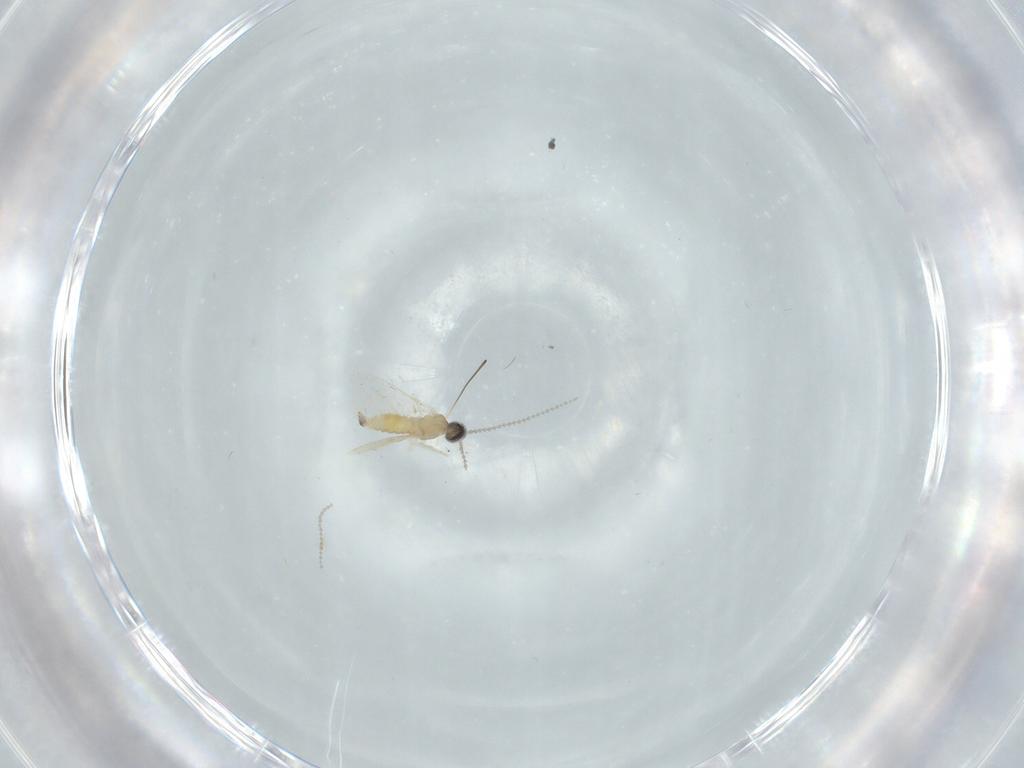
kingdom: Animalia
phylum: Arthropoda
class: Insecta
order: Diptera
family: Cecidomyiidae
